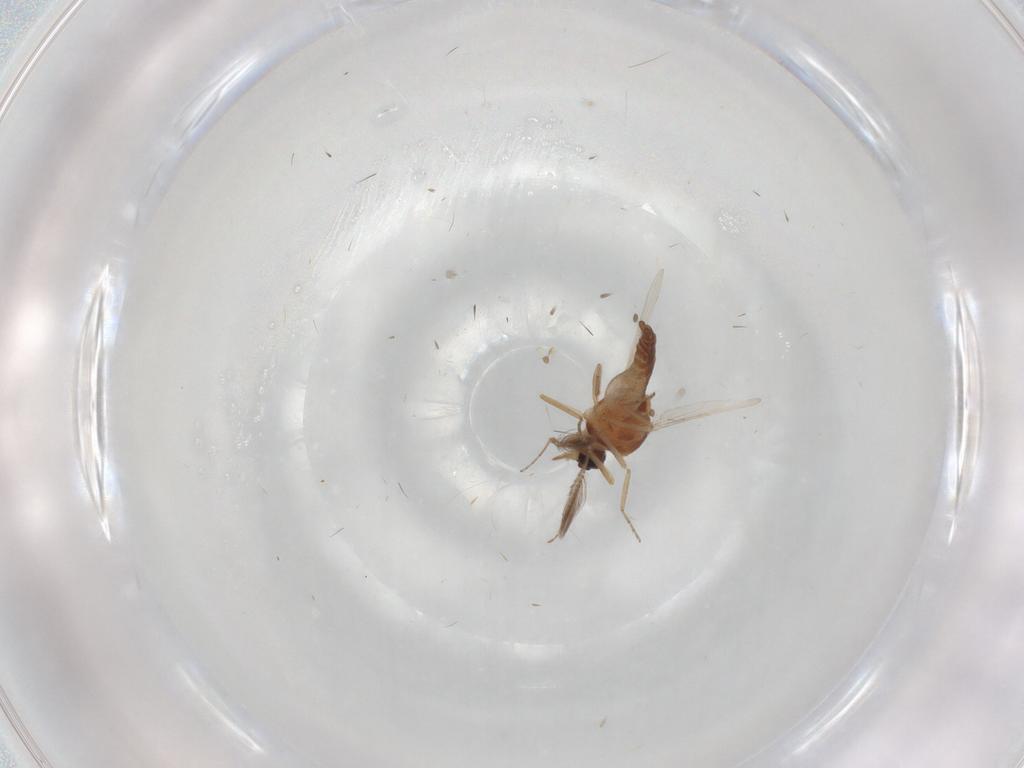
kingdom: Animalia
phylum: Arthropoda
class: Insecta
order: Diptera
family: Ceratopogonidae
